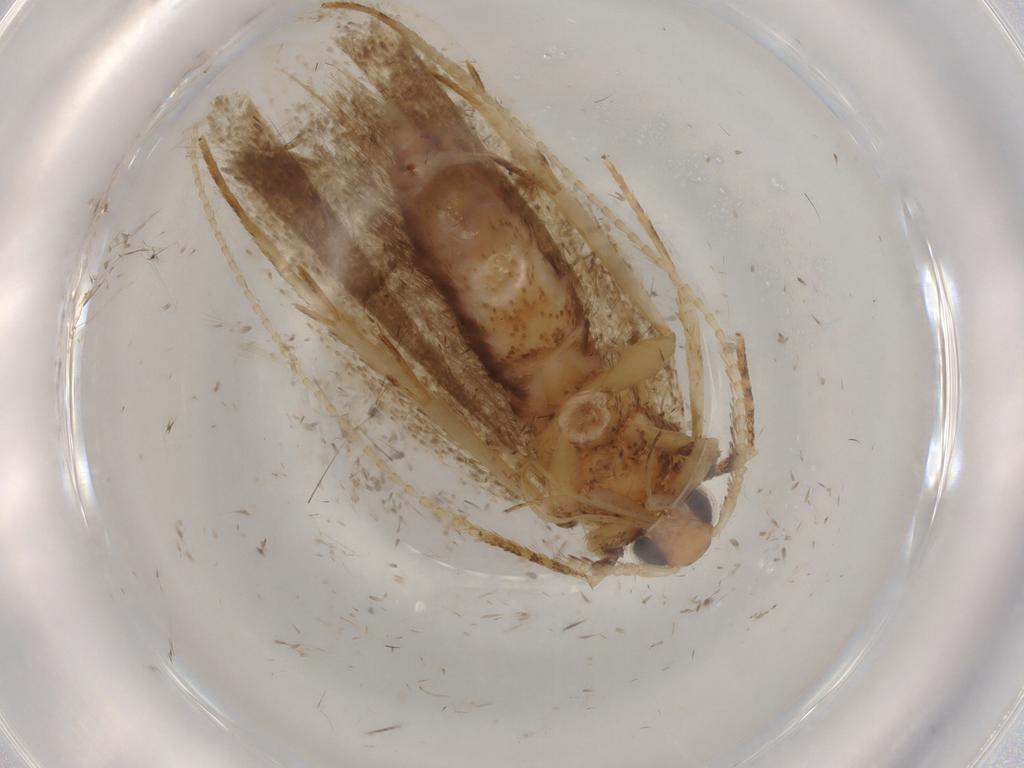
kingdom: Animalia
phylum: Arthropoda
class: Insecta
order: Lepidoptera
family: Lecithoceridae
